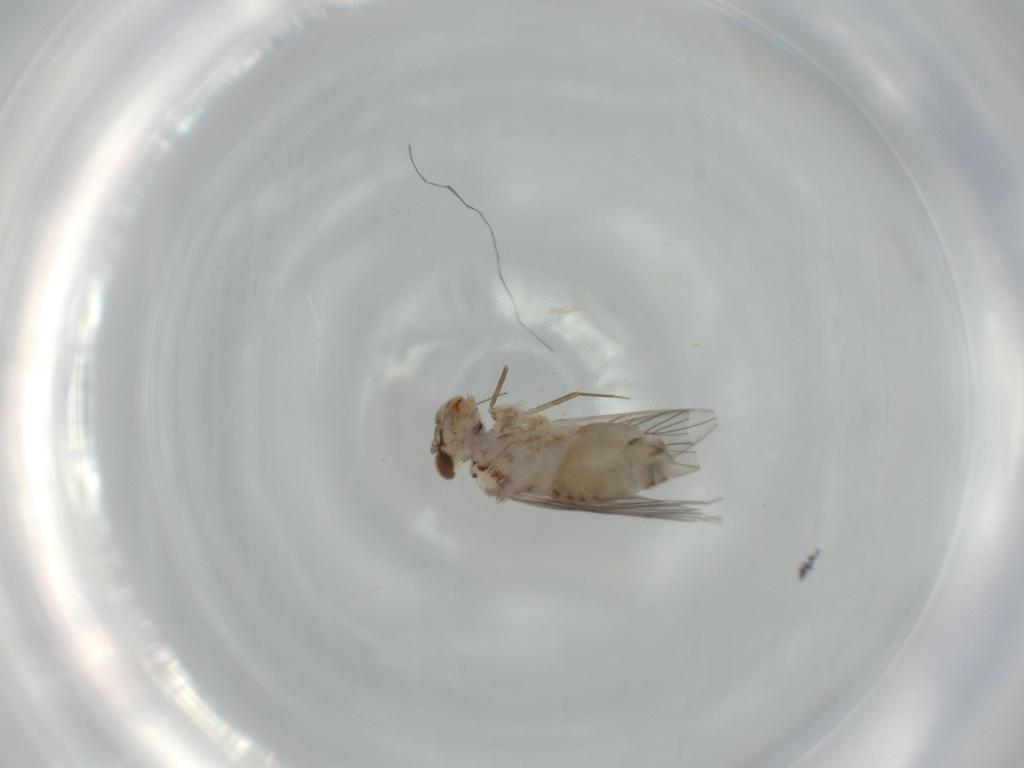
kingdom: Animalia
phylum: Arthropoda
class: Insecta
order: Psocodea
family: Lepidopsocidae
